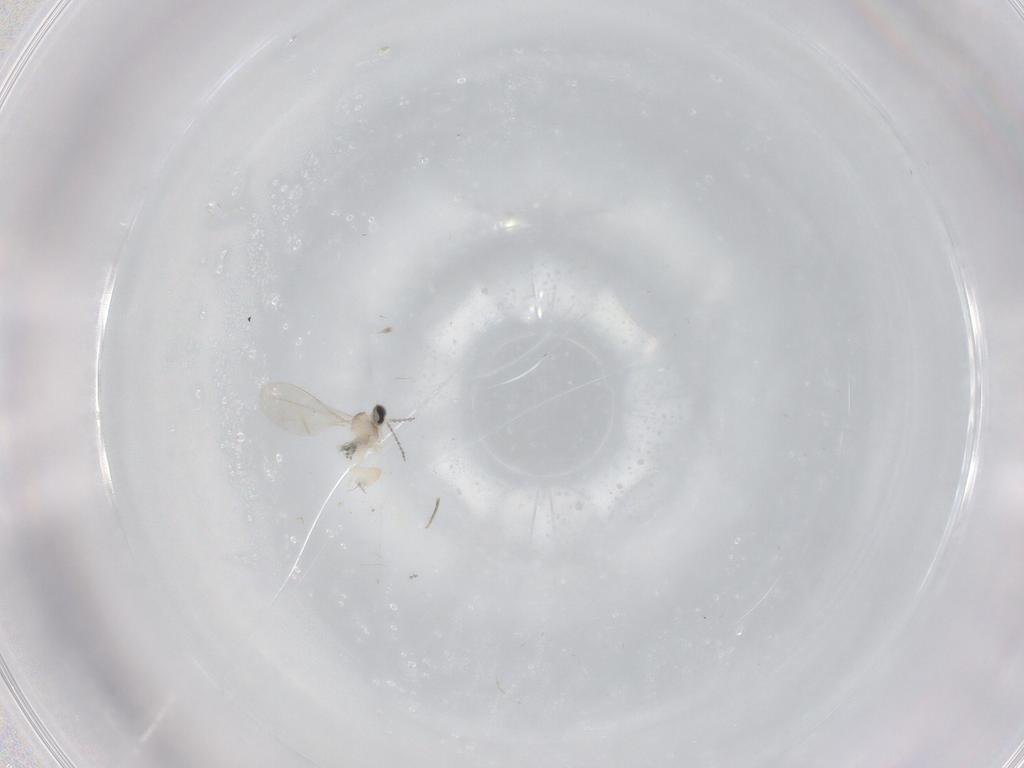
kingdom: Animalia
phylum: Arthropoda
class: Insecta
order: Diptera
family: Phoridae
